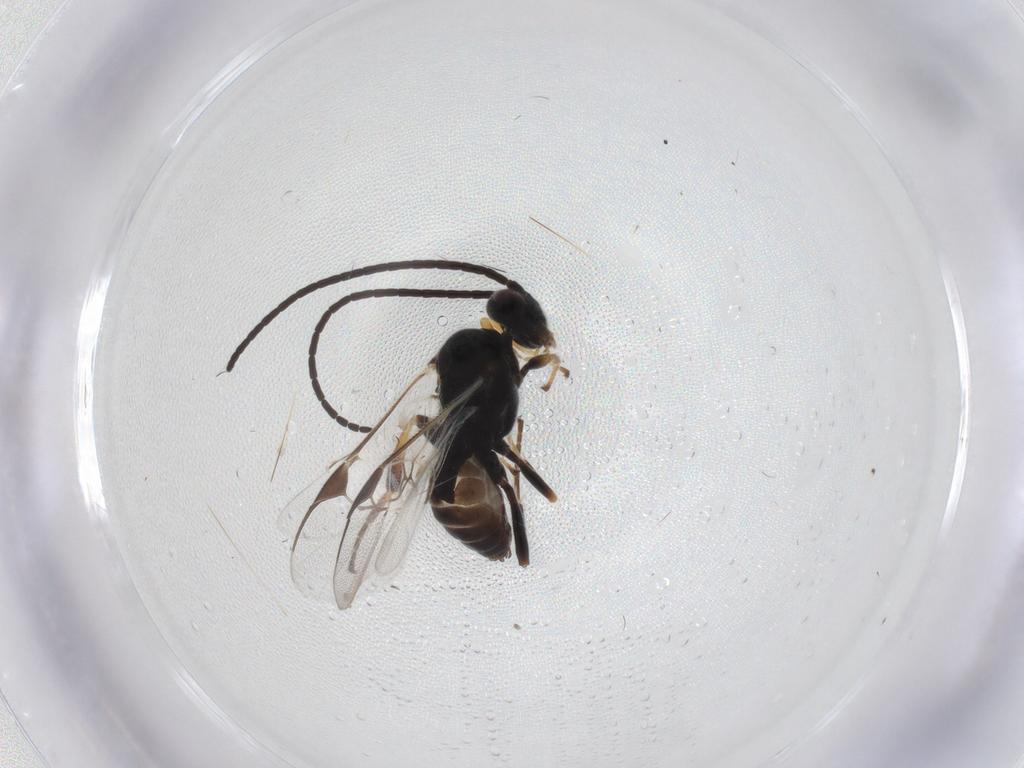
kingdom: Animalia
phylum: Arthropoda
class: Insecta
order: Hymenoptera
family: Braconidae
